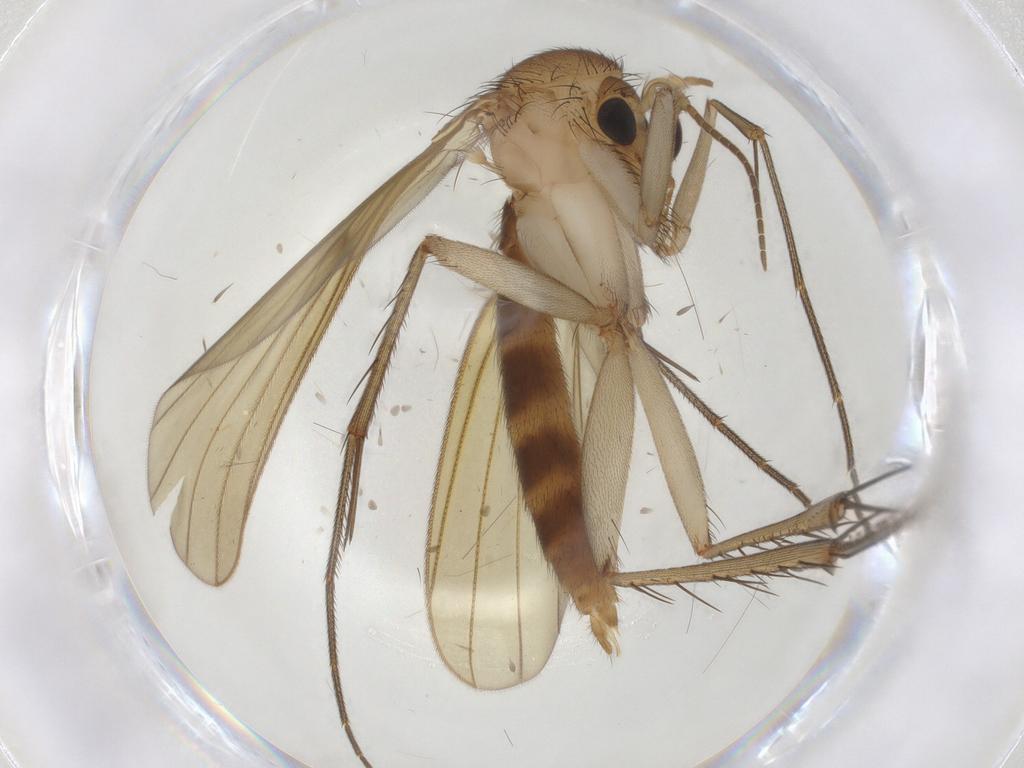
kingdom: Animalia
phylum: Arthropoda
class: Insecta
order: Diptera
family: Mycetophilidae
